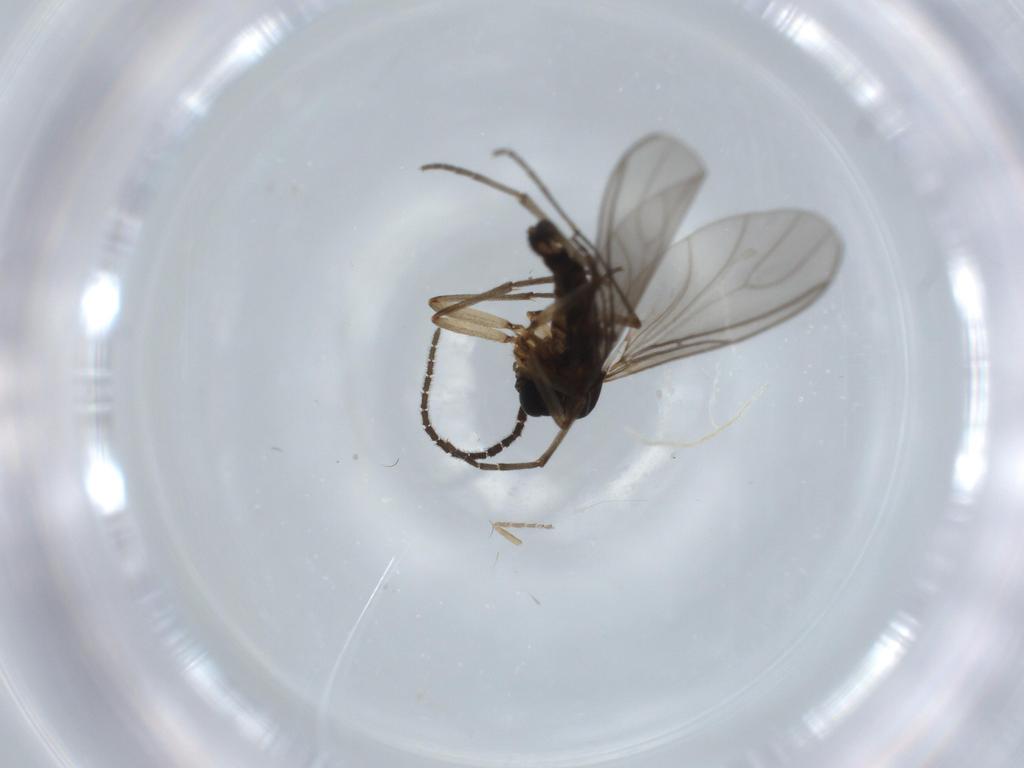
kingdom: Animalia
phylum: Arthropoda
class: Insecta
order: Diptera
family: Sciaridae
